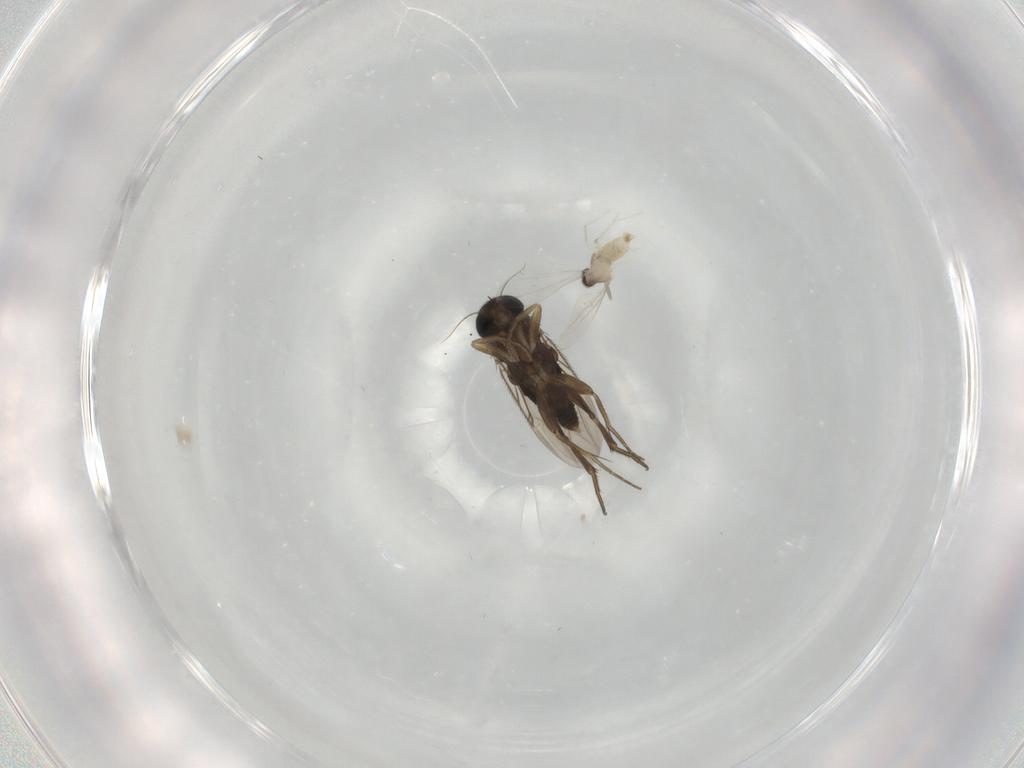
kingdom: Animalia
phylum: Arthropoda
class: Insecta
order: Diptera
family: Phoridae
